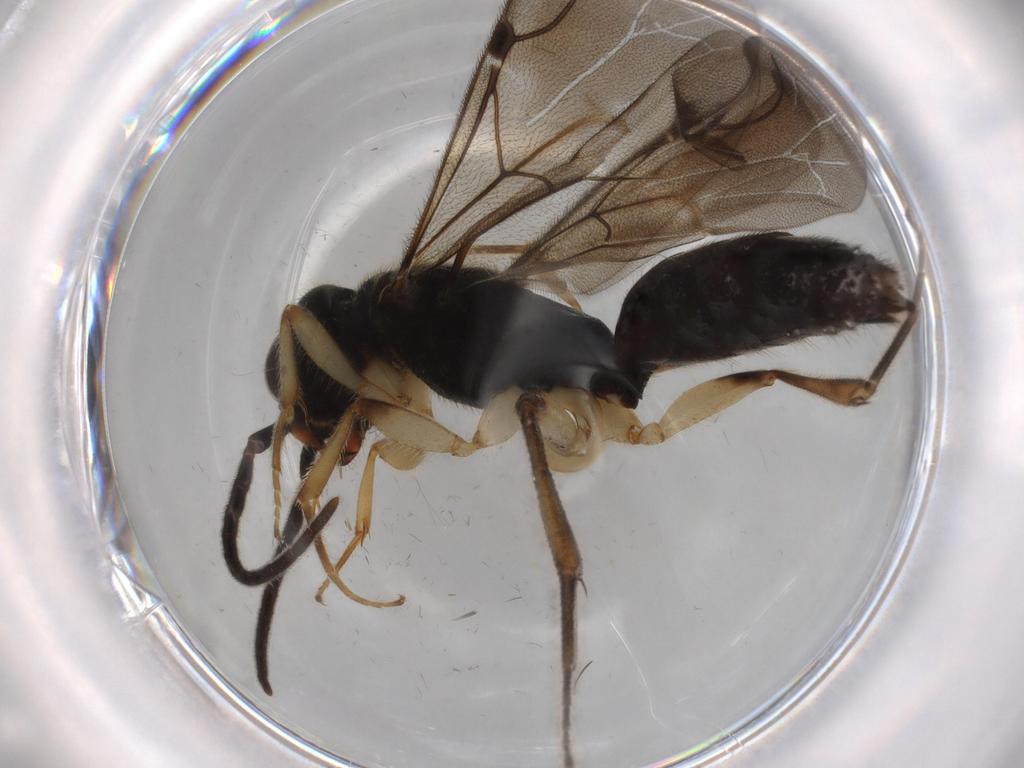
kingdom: Animalia
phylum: Arthropoda
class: Insecta
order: Hymenoptera
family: Bethylidae
